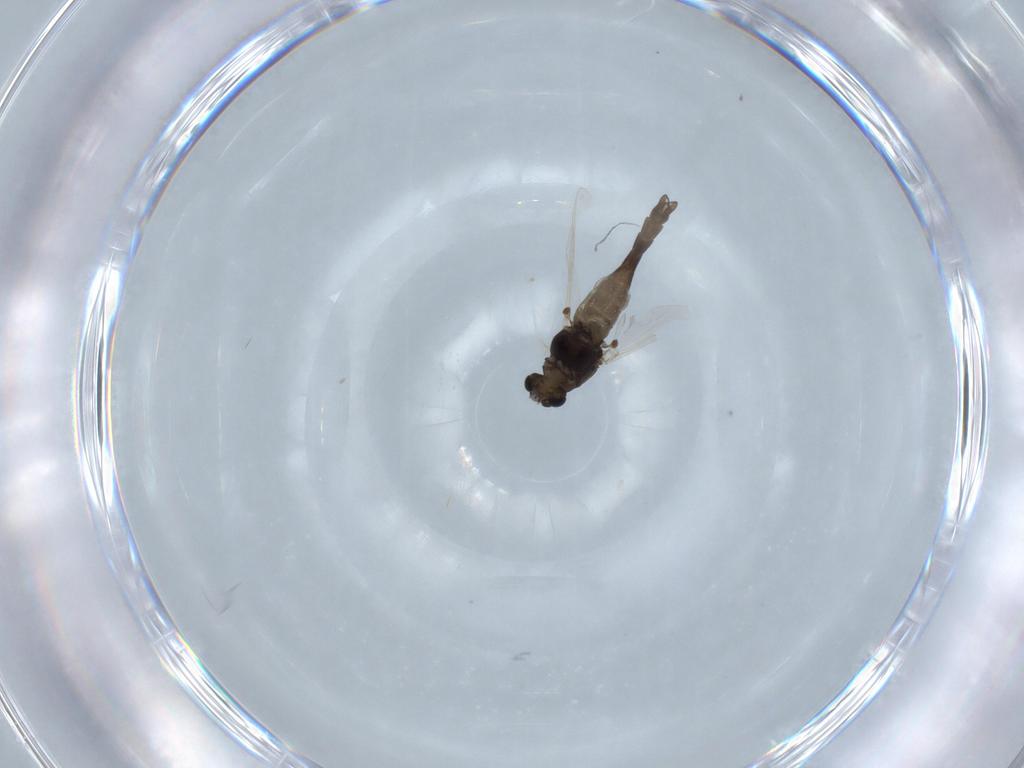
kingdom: Animalia
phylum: Arthropoda
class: Insecta
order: Diptera
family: Chironomidae
